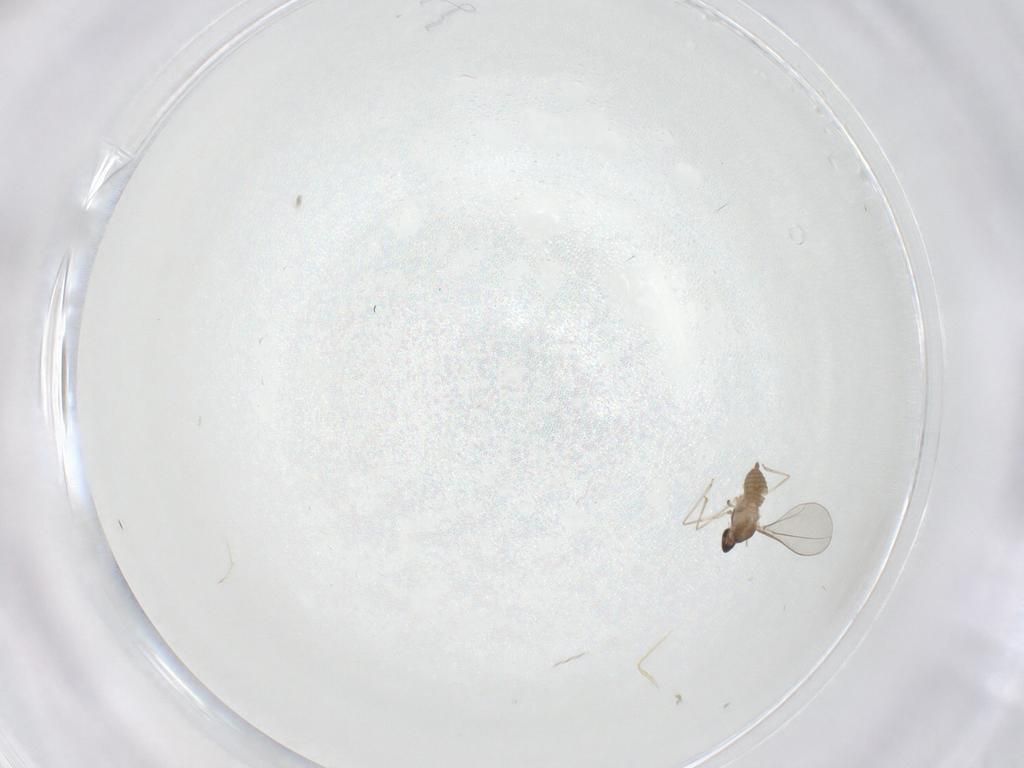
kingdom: Animalia
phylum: Arthropoda
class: Insecta
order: Diptera
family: Cecidomyiidae
